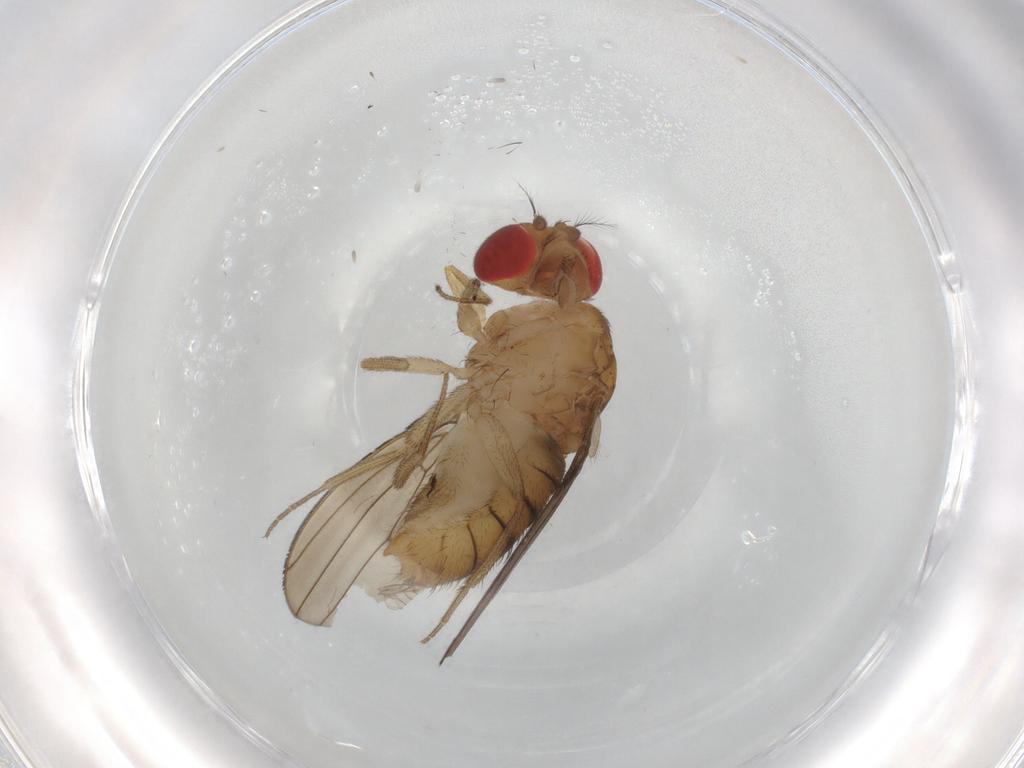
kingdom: Animalia
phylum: Arthropoda
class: Insecta
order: Diptera
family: Drosophilidae
